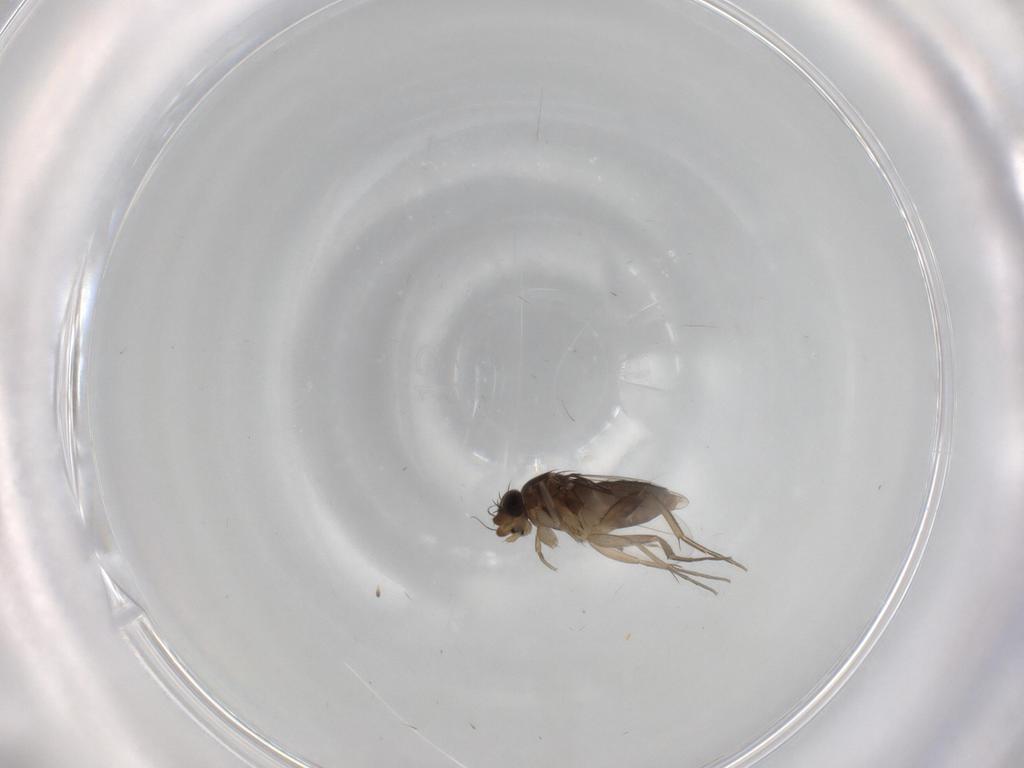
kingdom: Animalia
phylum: Arthropoda
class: Insecta
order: Diptera
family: Phoridae
